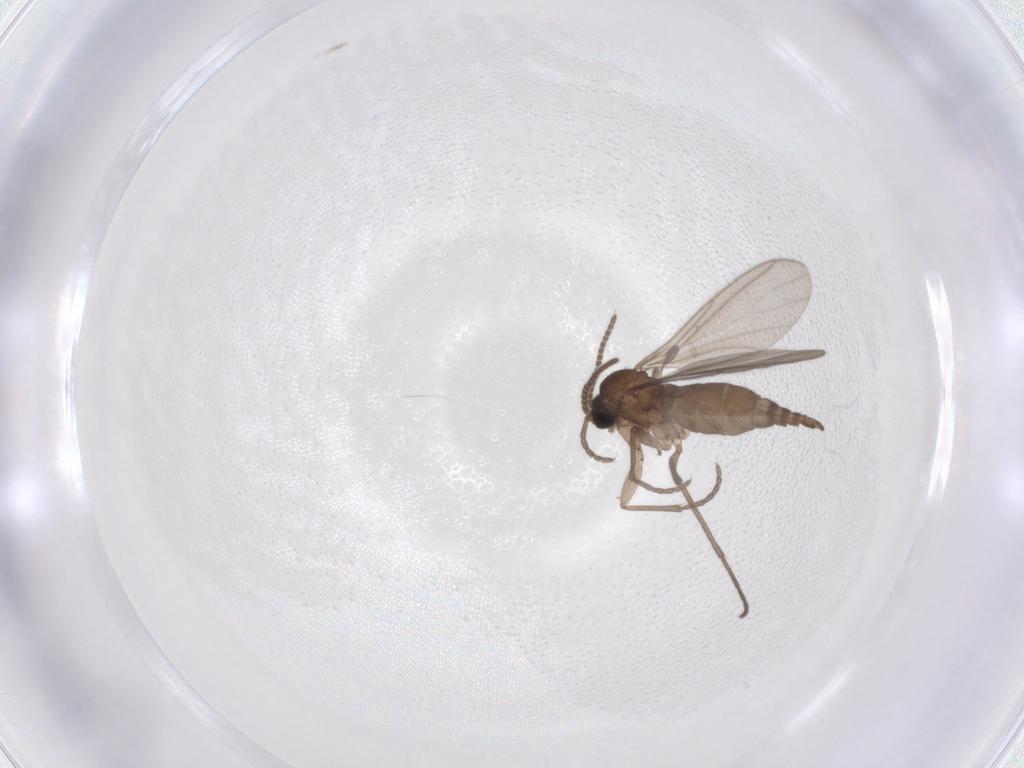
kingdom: Animalia
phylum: Arthropoda
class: Insecta
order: Diptera
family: Sciaridae
